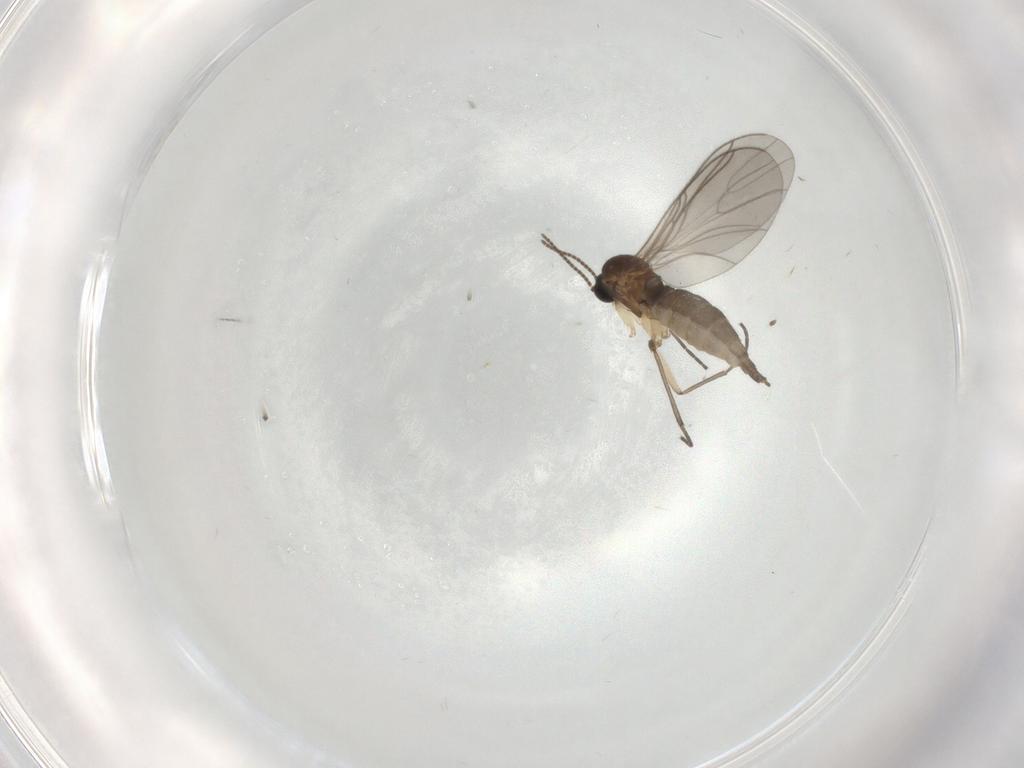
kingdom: Animalia
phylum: Arthropoda
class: Insecta
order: Diptera
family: Sciaridae
